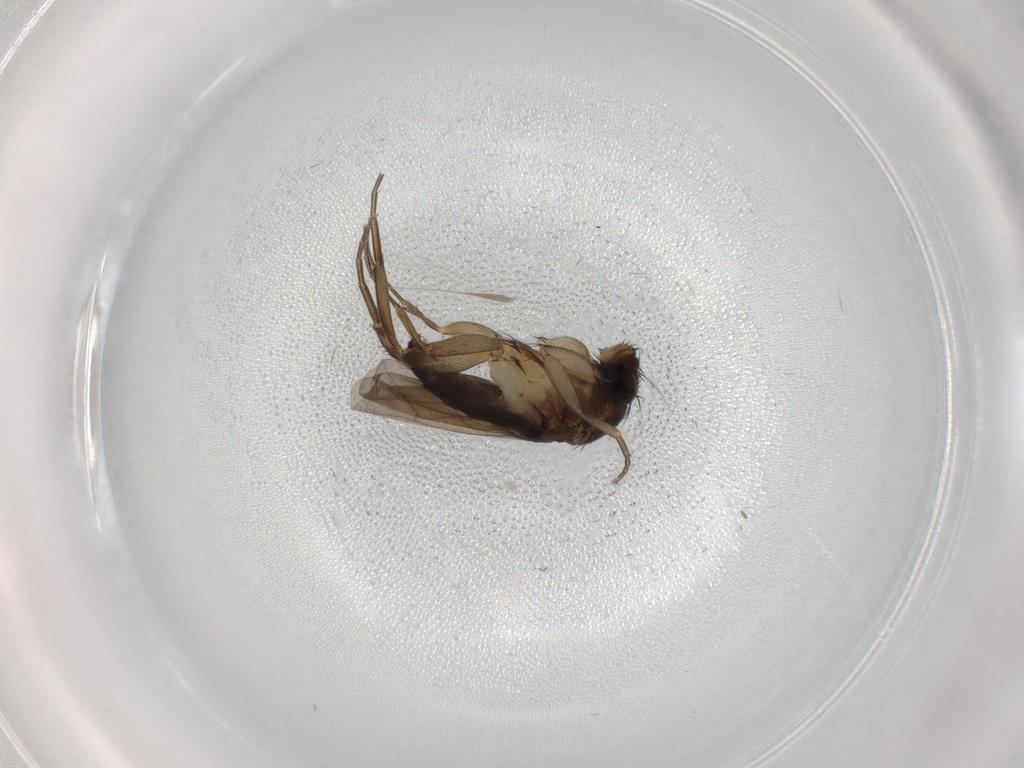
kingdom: Animalia
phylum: Arthropoda
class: Insecta
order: Diptera
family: Phoridae
